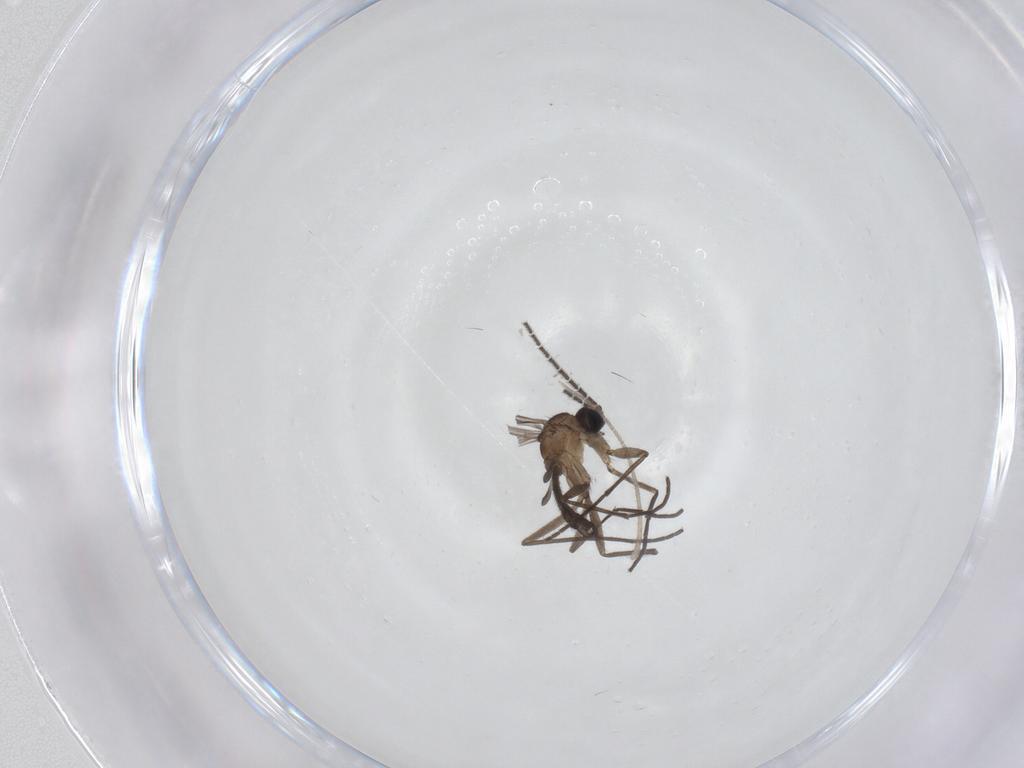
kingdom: Animalia
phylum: Arthropoda
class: Insecta
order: Diptera
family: Sciaridae
